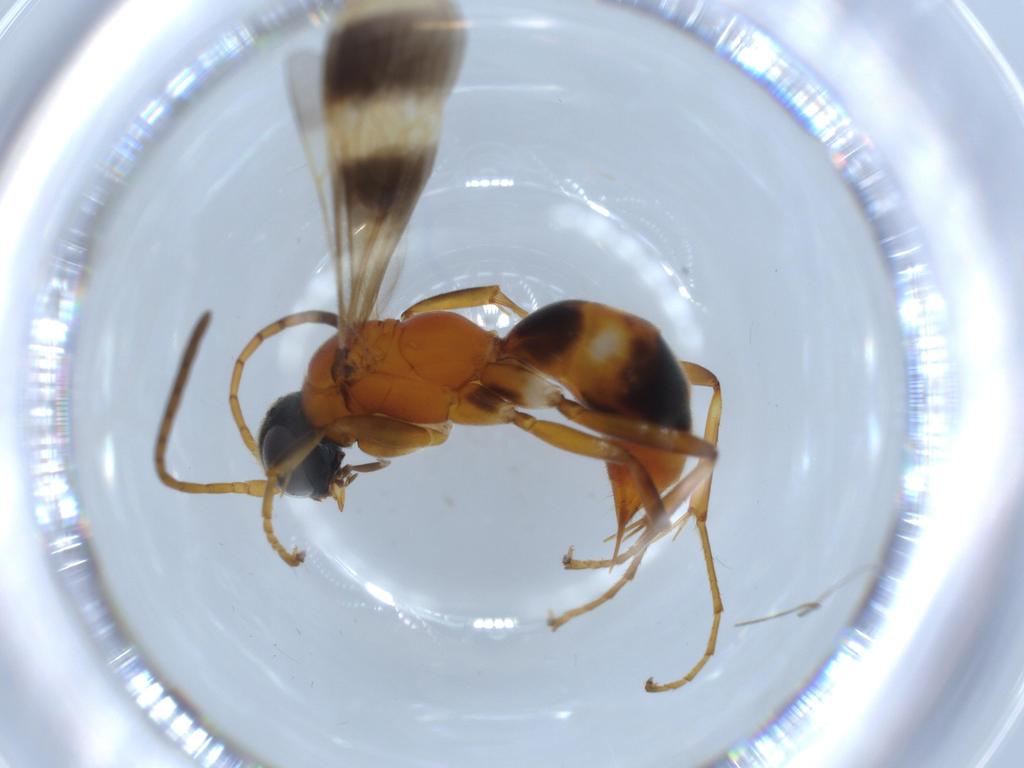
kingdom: Animalia
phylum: Arthropoda
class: Insecta
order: Hymenoptera
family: Pompilidae
